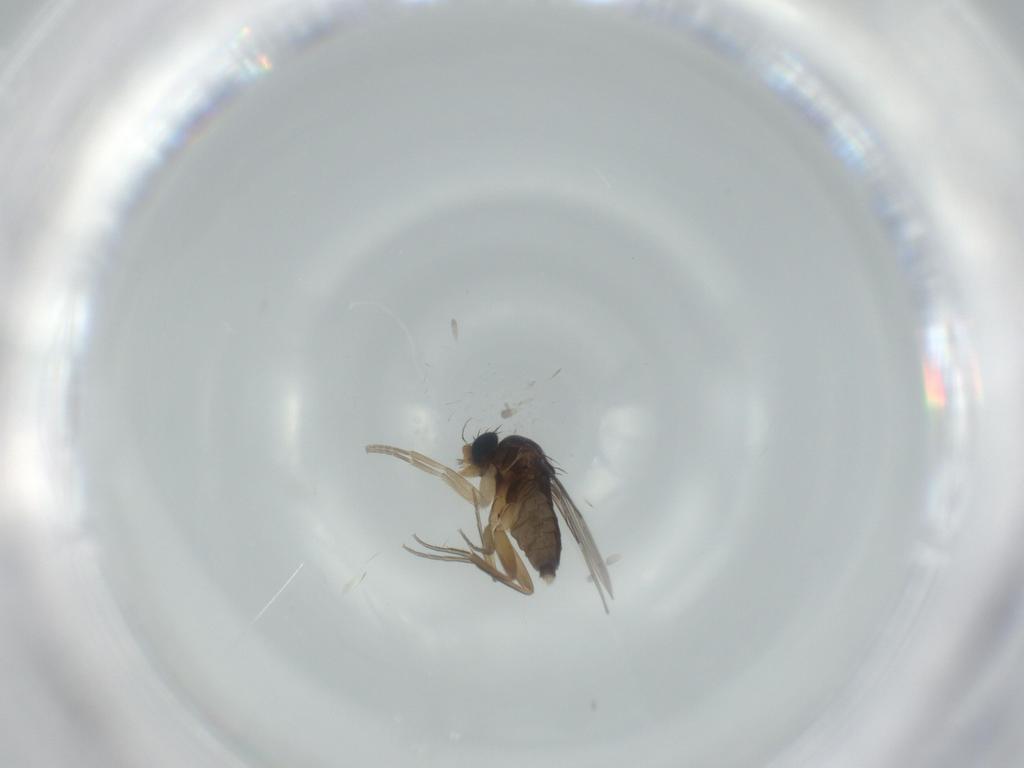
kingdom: Animalia
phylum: Arthropoda
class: Insecta
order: Diptera
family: Phoridae
